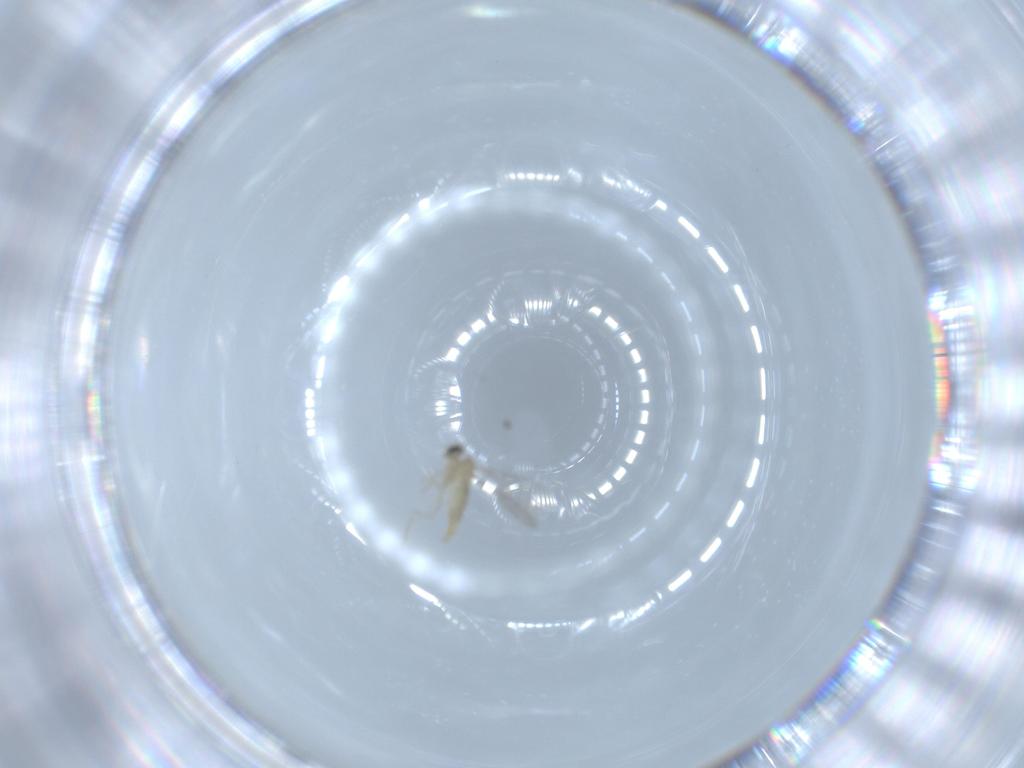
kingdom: Animalia
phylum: Arthropoda
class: Insecta
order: Diptera
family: Cecidomyiidae
